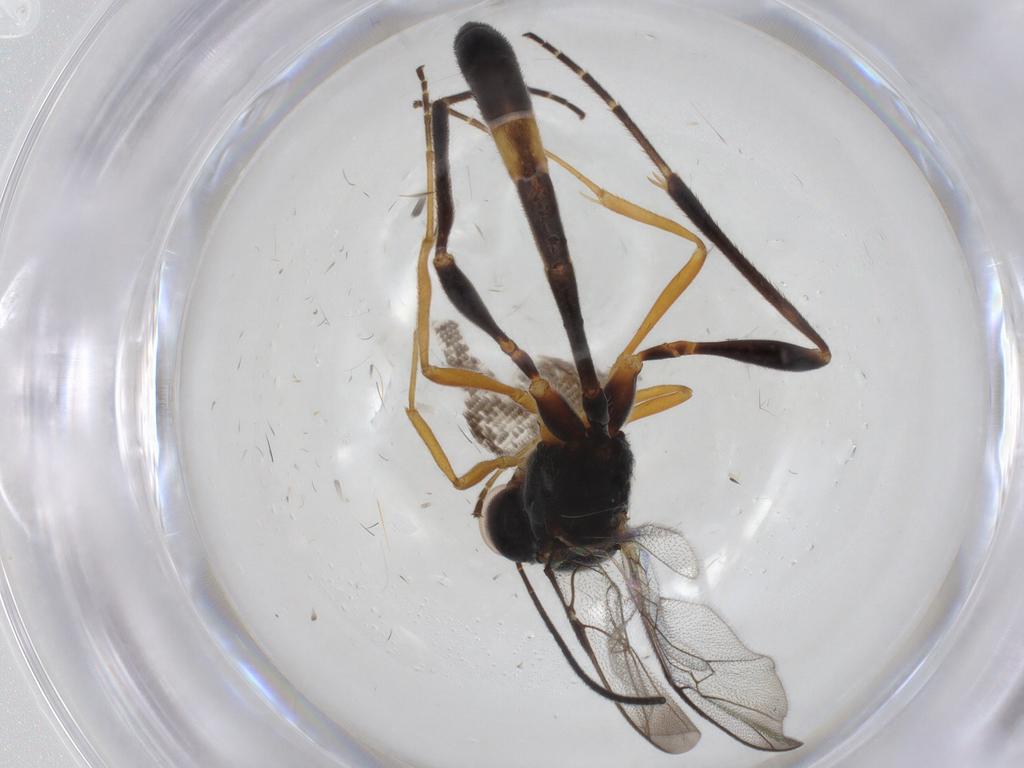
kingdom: Animalia
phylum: Arthropoda
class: Insecta
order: Hymenoptera
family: Ichneumonidae
